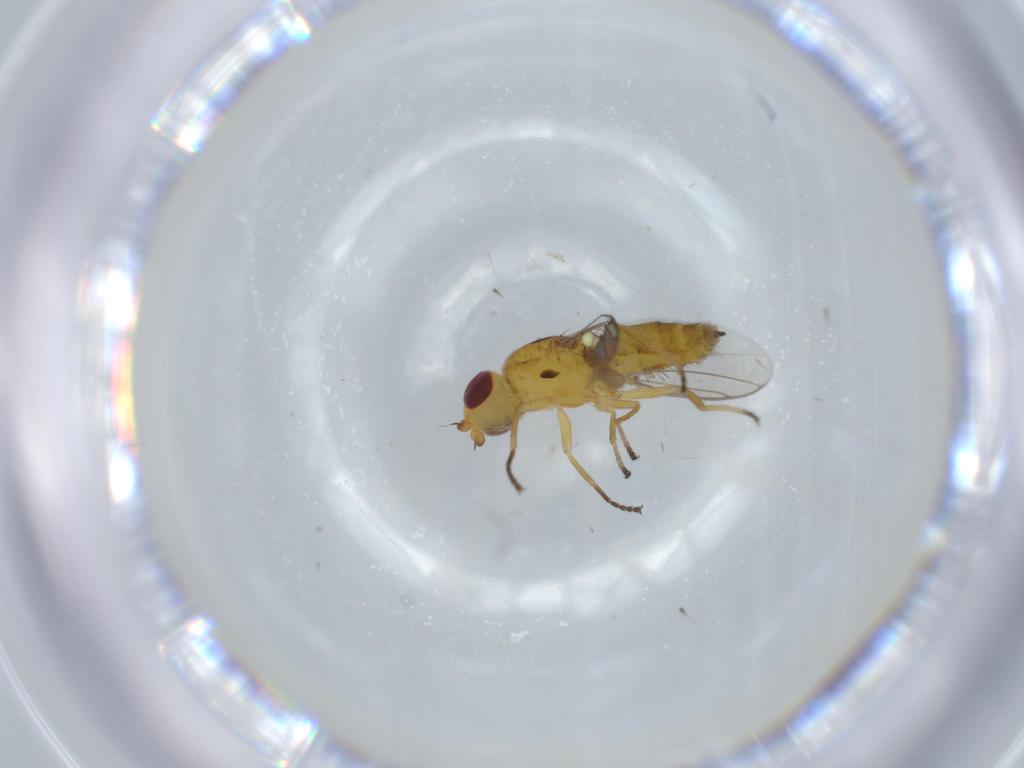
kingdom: Animalia
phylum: Arthropoda
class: Insecta
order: Diptera
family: Chloropidae
